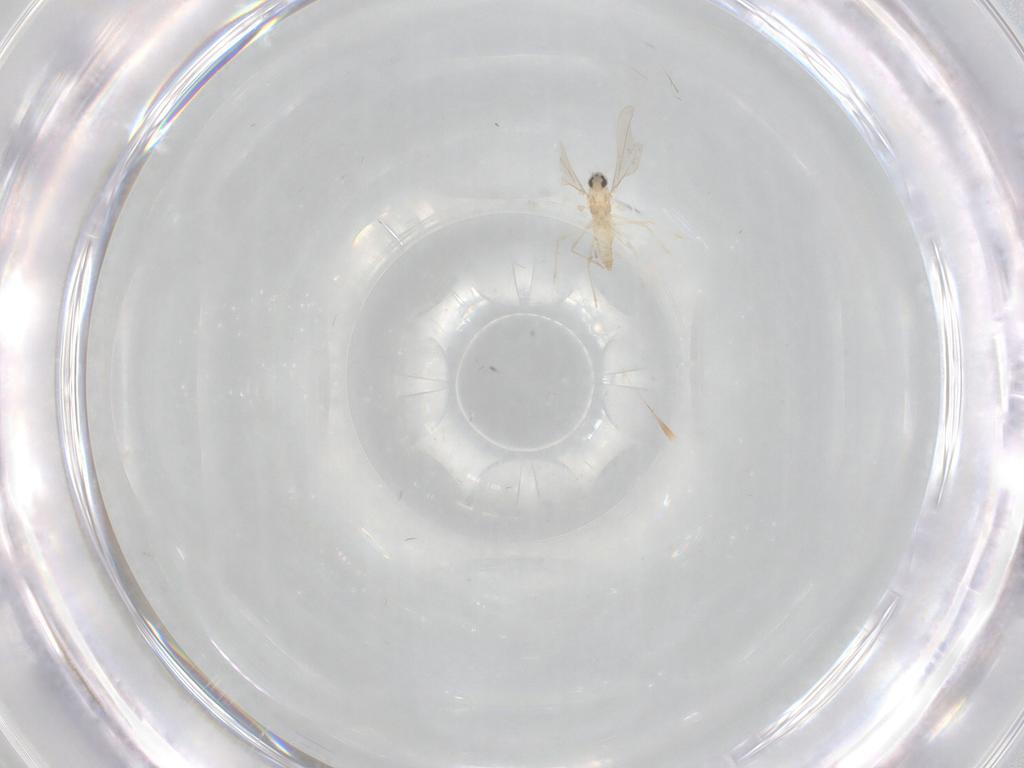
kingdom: Animalia
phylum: Arthropoda
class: Insecta
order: Diptera
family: Cecidomyiidae
